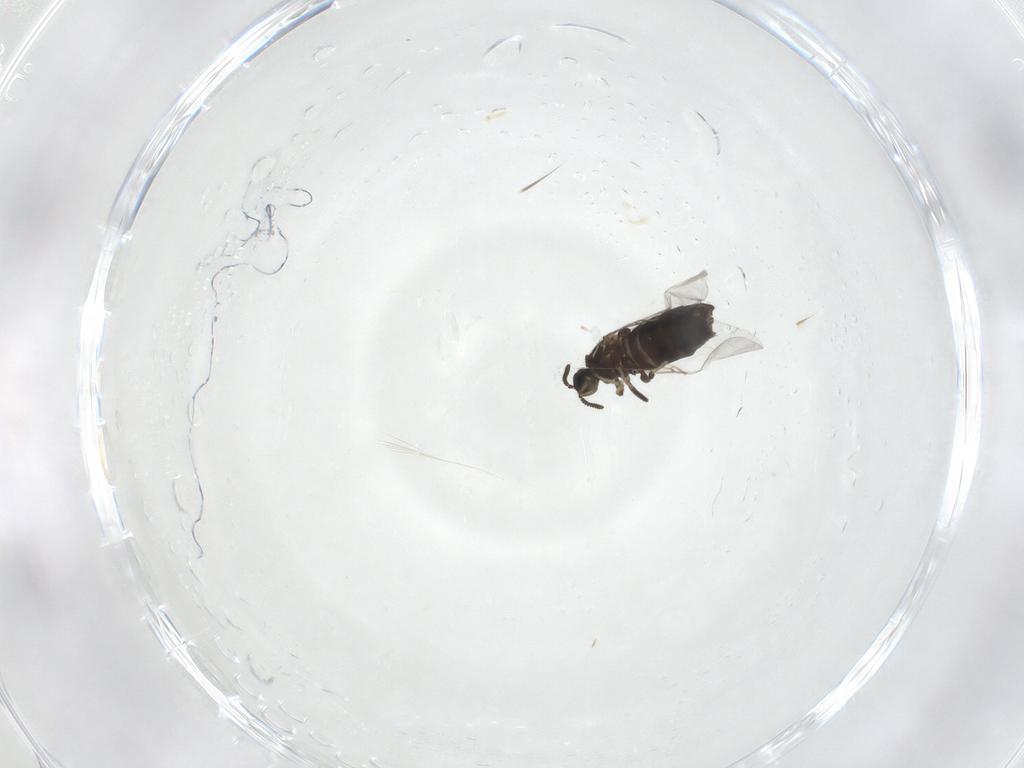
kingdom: Animalia
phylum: Arthropoda
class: Insecta
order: Diptera
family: Scatopsidae
